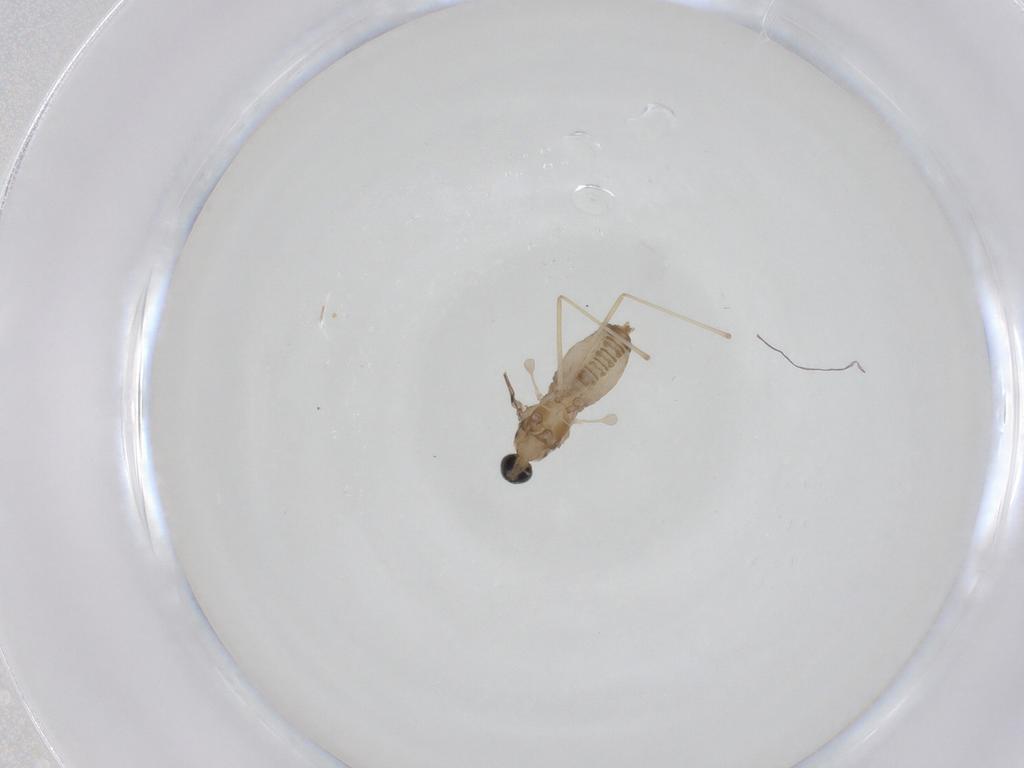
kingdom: Animalia
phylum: Arthropoda
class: Insecta
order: Diptera
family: Cecidomyiidae
